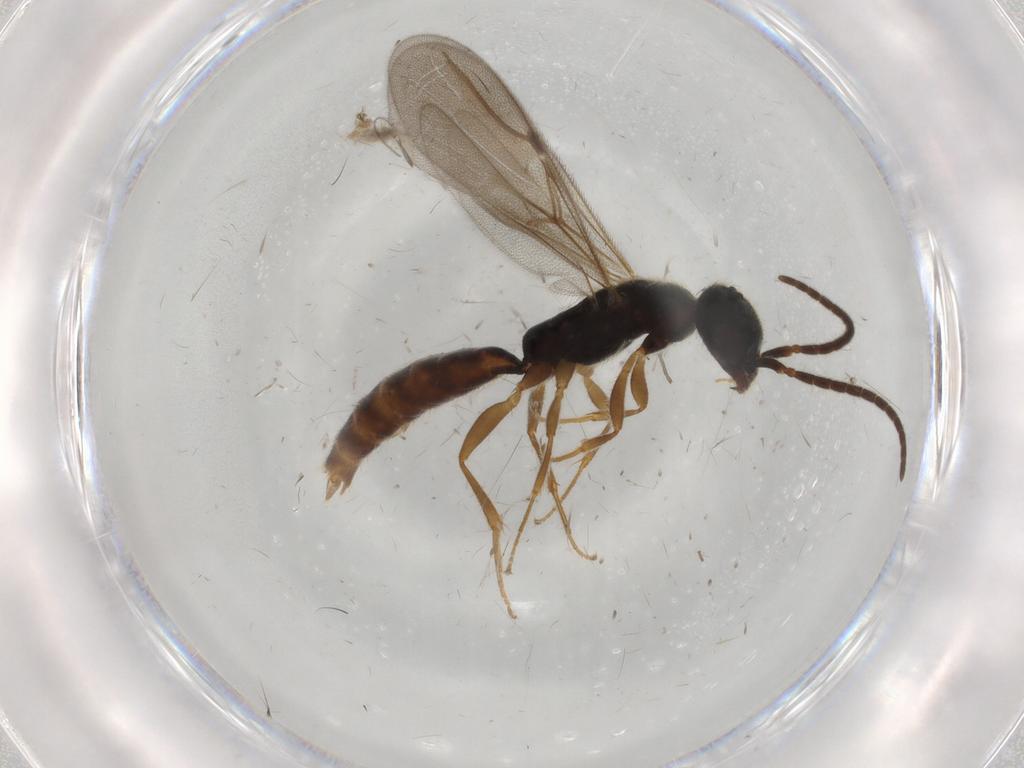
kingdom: Animalia
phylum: Arthropoda
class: Insecta
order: Hymenoptera
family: Bethylidae
